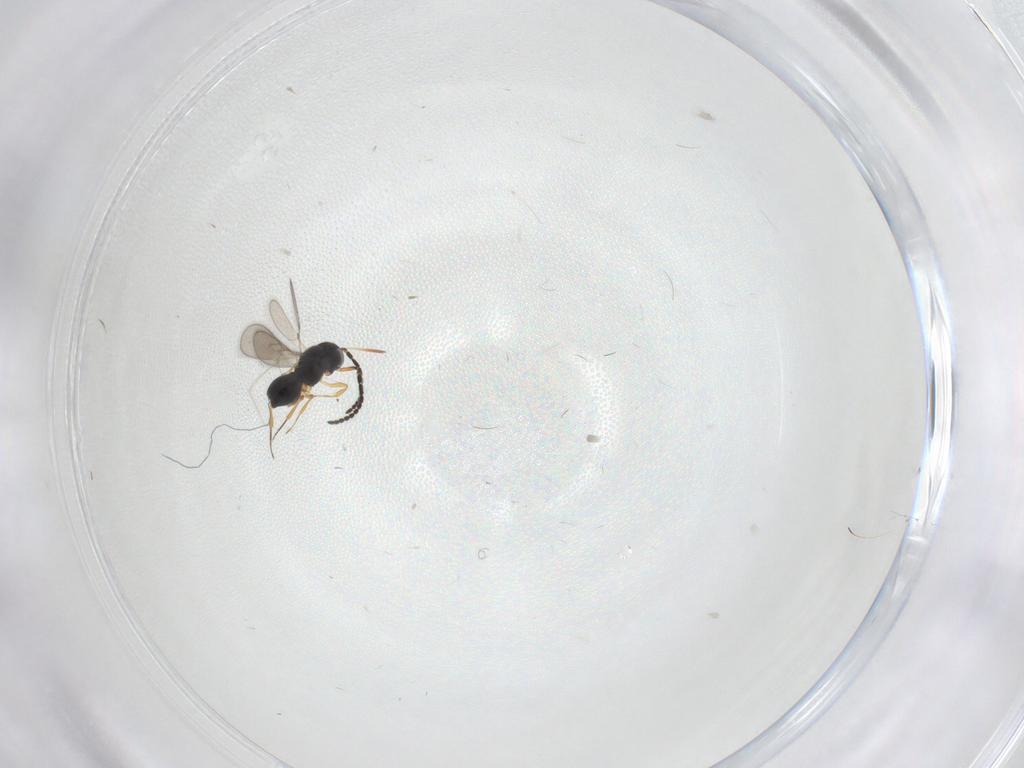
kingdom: Animalia
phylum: Arthropoda
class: Insecta
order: Hymenoptera
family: Scelionidae
